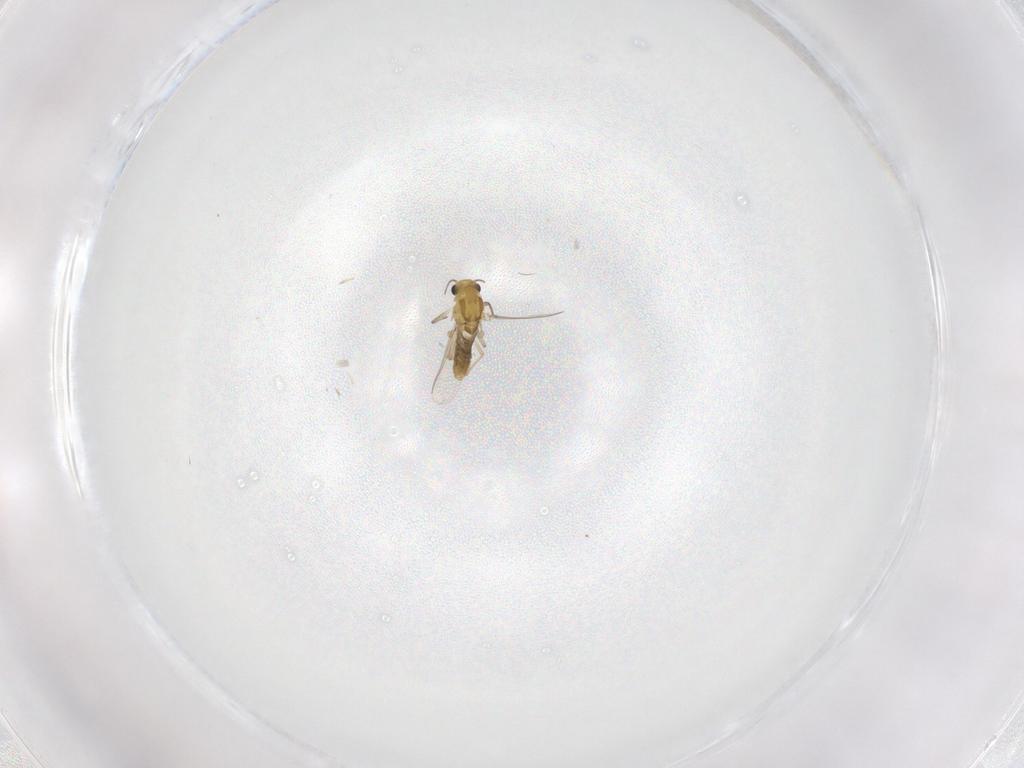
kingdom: Animalia
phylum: Arthropoda
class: Insecta
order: Diptera
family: Chironomidae
